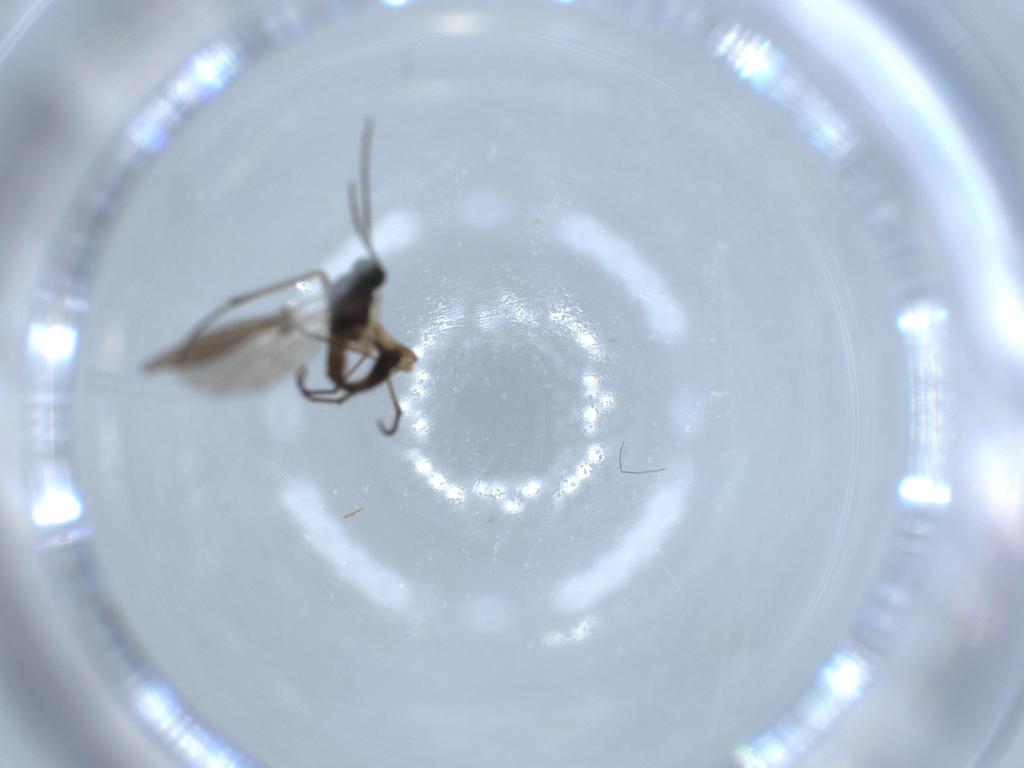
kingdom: Animalia
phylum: Arthropoda
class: Insecta
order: Diptera
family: Sciaridae
